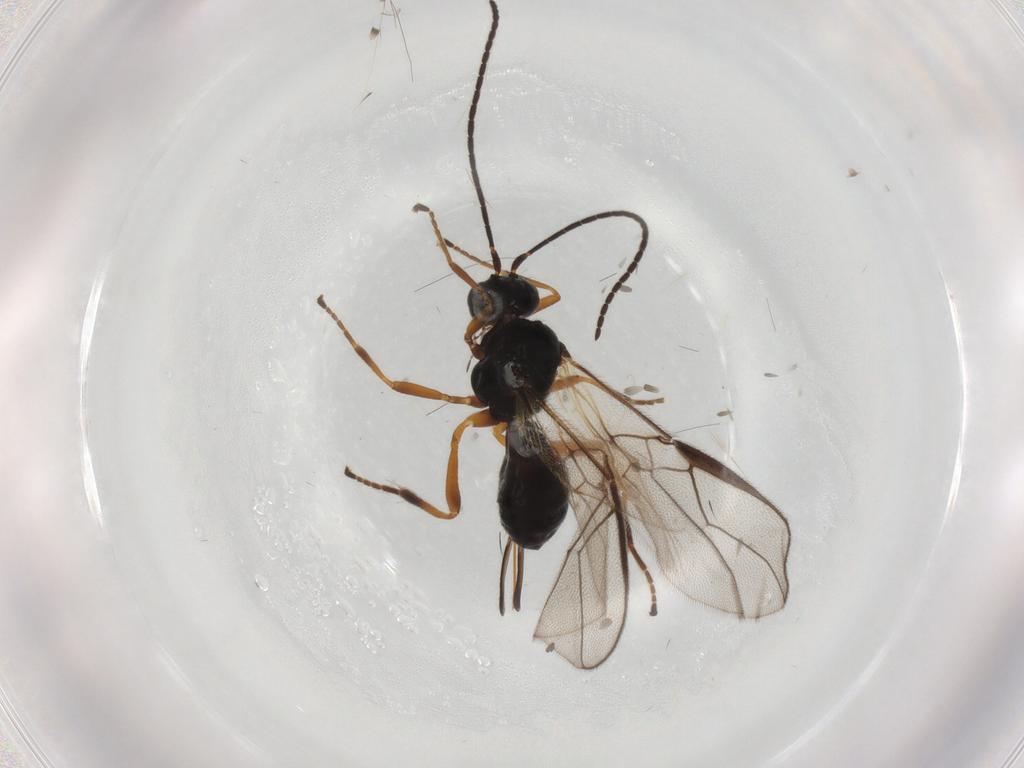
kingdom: Animalia
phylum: Arthropoda
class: Insecta
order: Hymenoptera
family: Braconidae
